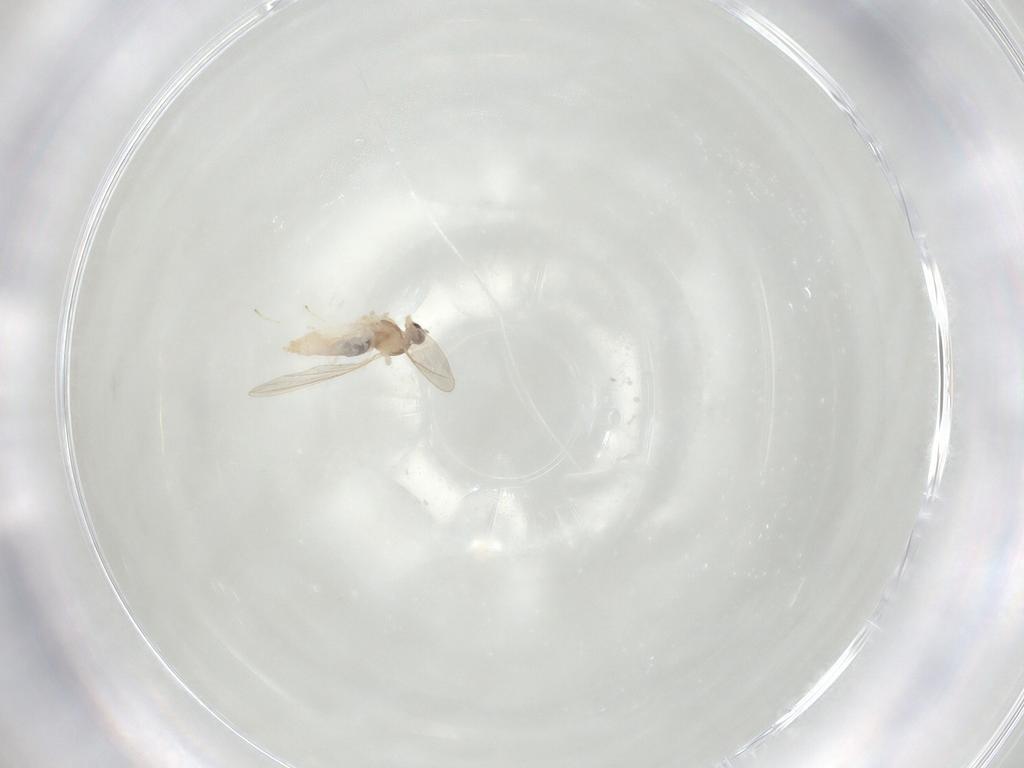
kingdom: Animalia
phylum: Arthropoda
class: Insecta
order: Diptera
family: Cecidomyiidae
